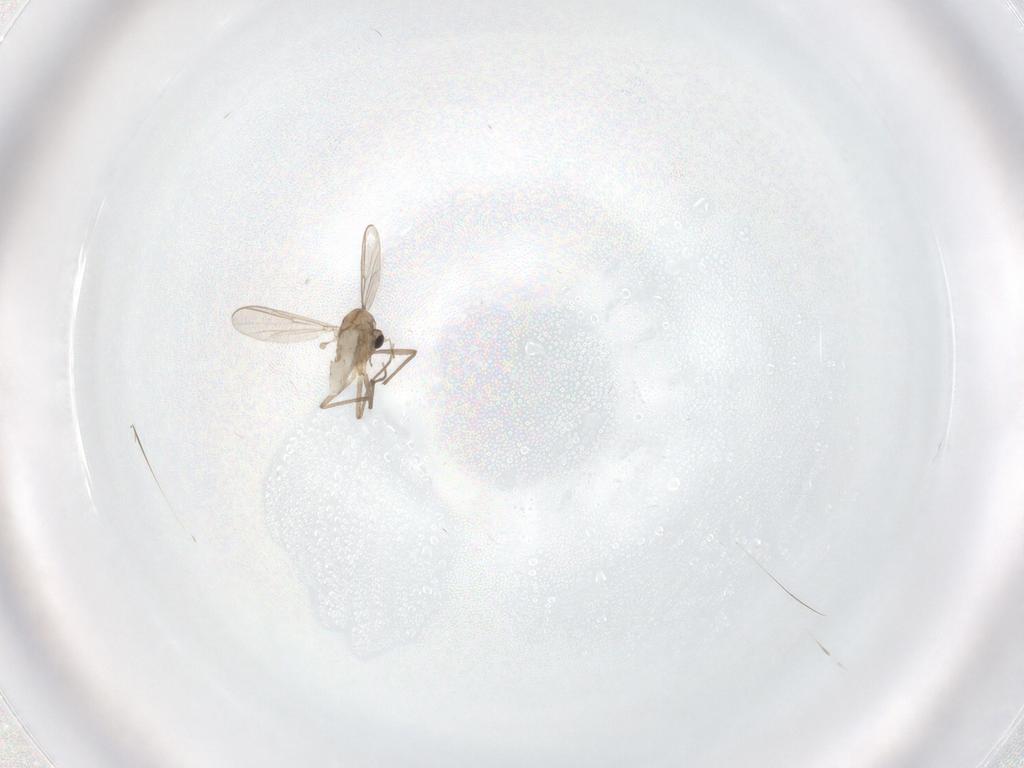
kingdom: Animalia
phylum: Arthropoda
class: Insecta
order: Diptera
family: Chironomidae
